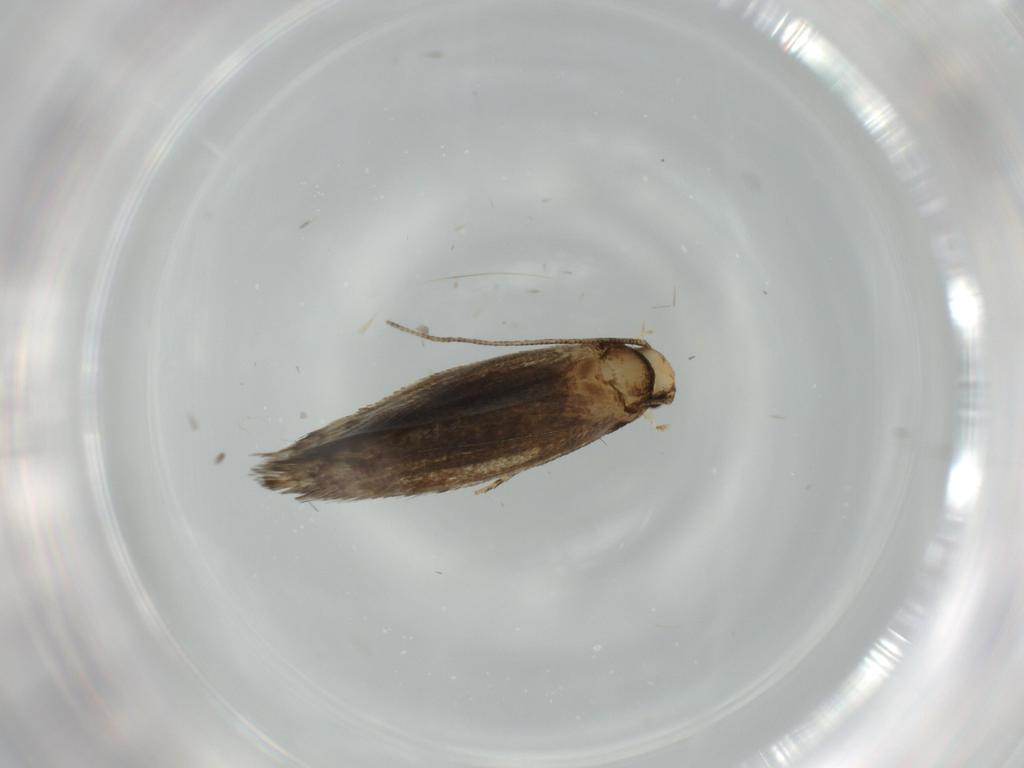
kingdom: Animalia
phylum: Arthropoda
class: Insecta
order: Lepidoptera
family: Tineidae
